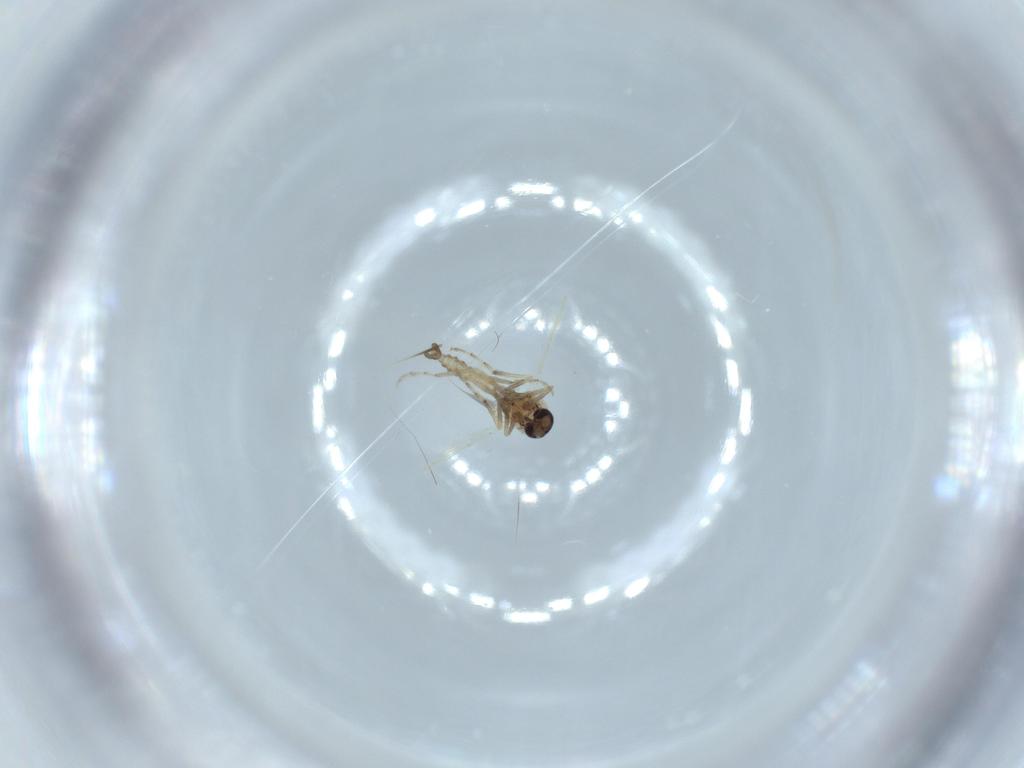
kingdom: Animalia
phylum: Arthropoda
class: Insecta
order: Diptera
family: Ceratopogonidae
